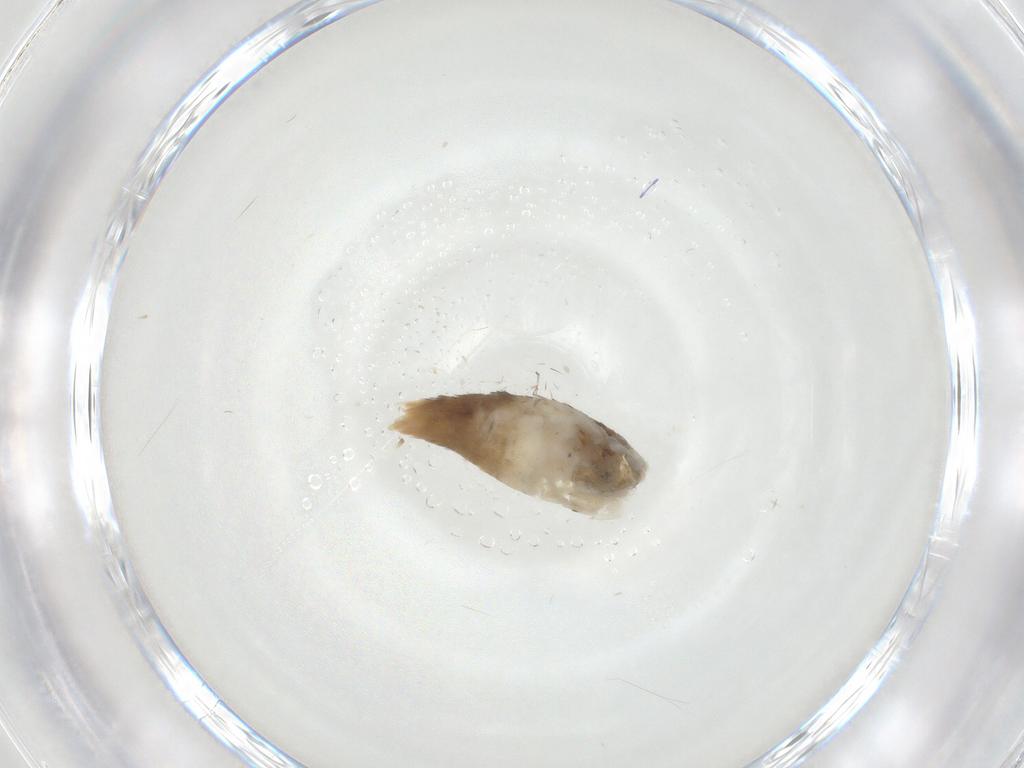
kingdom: Animalia
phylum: Arthropoda
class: Insecta
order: Lepidoptera
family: Tineidae
